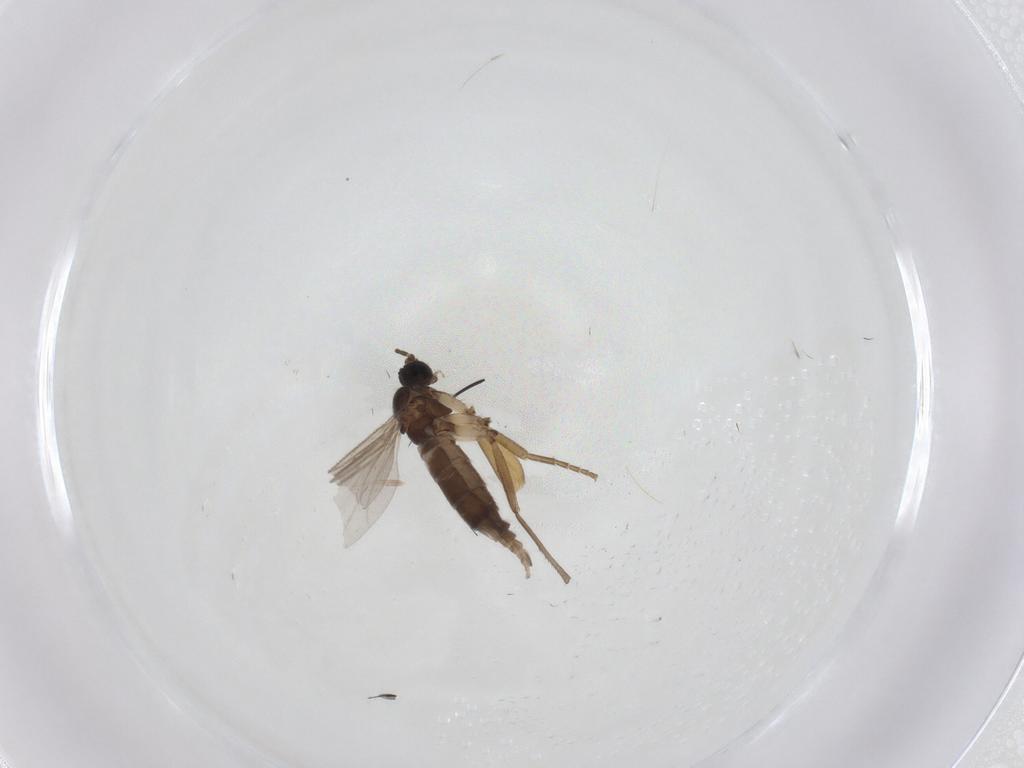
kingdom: Animalia
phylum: Arthropoda
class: Insecta
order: Diptera
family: Sciaridae
